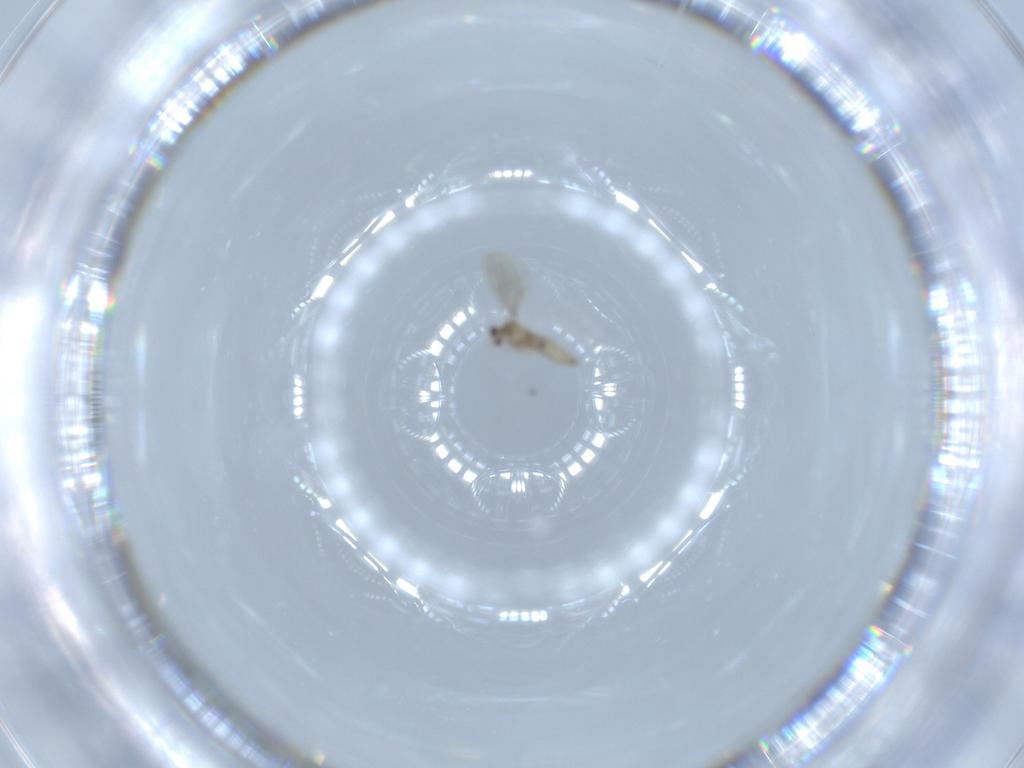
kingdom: Animalia
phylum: Arthropoda
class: Insecta
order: Diptera
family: Cecidomyiidae
